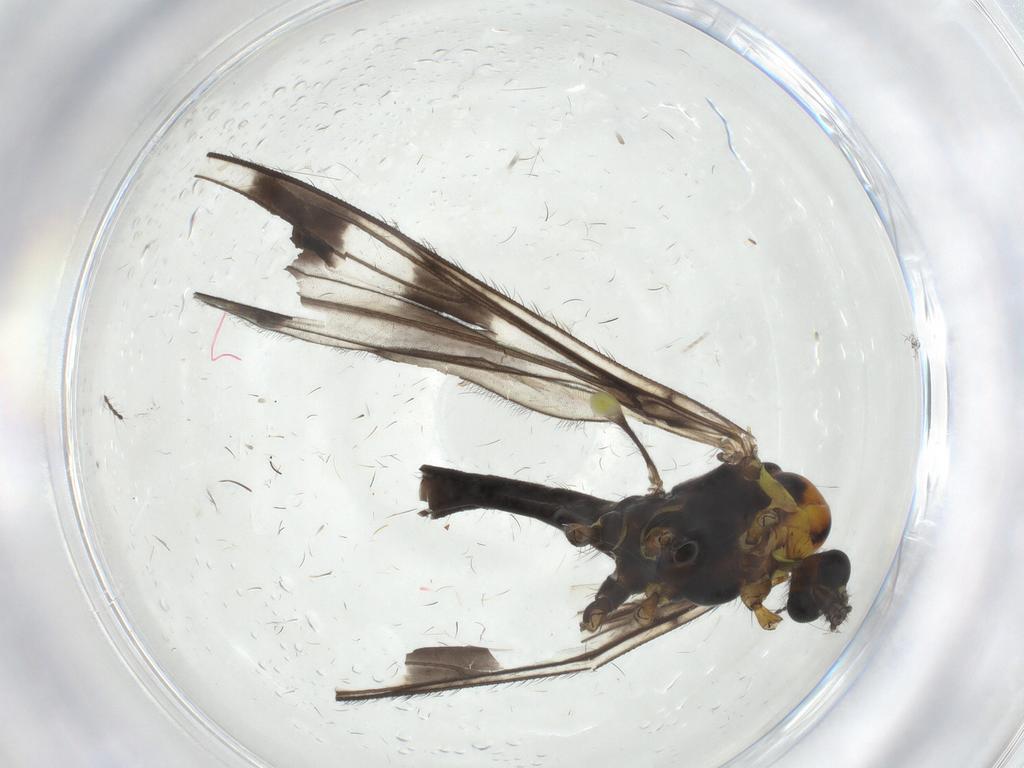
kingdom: Animalia
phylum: Arthropoda
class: Insecta
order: Diptera
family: Limoniidae
